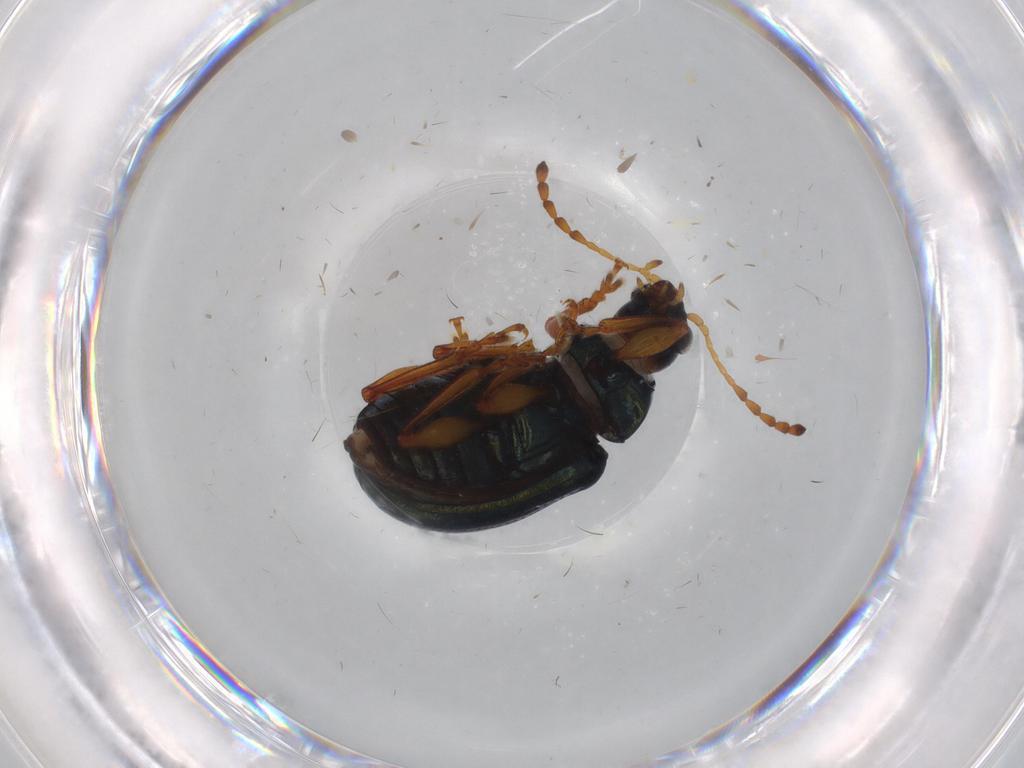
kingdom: Animalia
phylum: Arthropoda
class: Insecta
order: Coleoptera
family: Chrysomelidae
